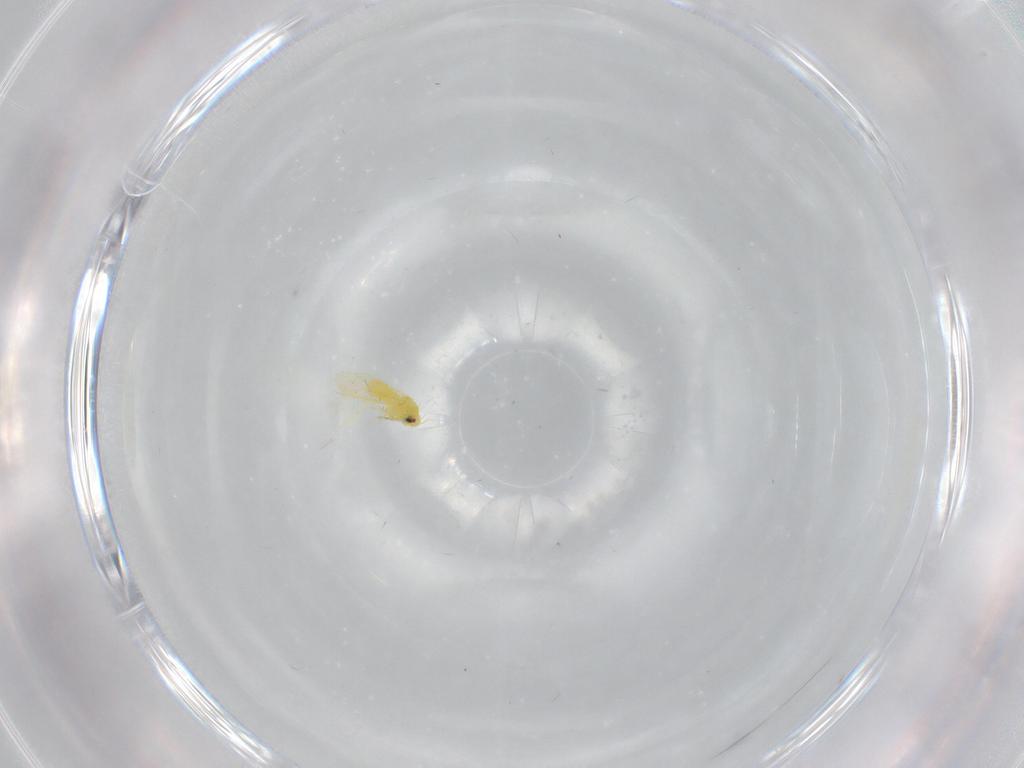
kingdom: Animalia
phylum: Arthropoda
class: Insecta
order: Hemiptera
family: Aleyrodidae
